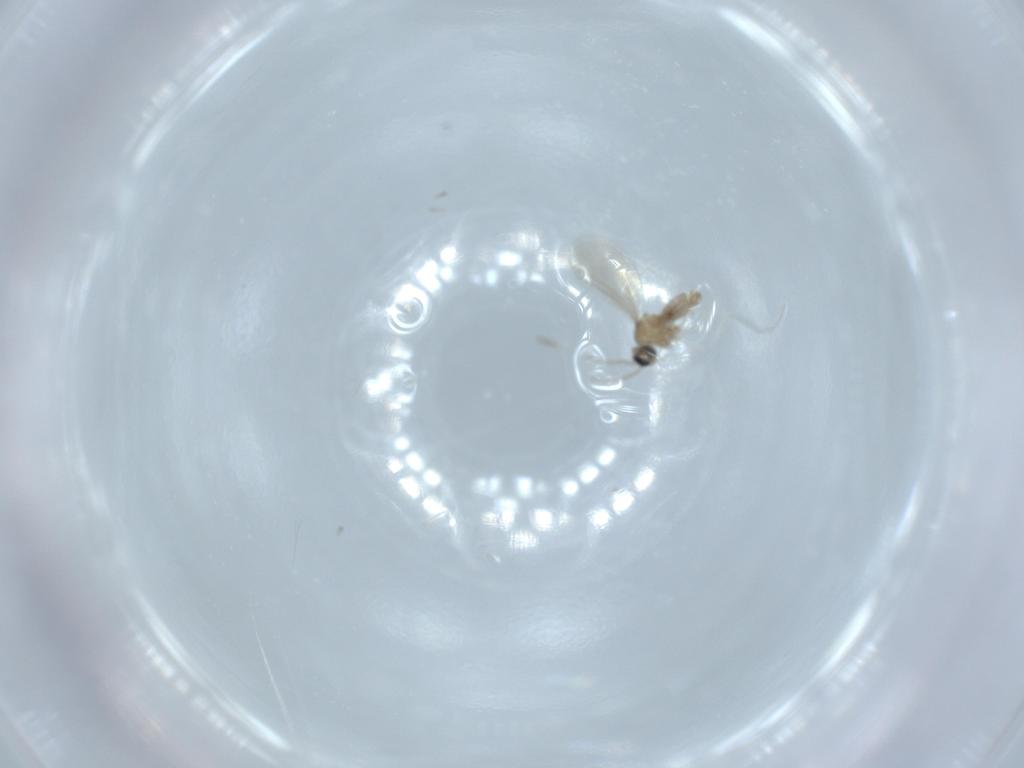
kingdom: Animalia
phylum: Arthropoda
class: Insecta
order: Diptera
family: Cecidomyiidae
